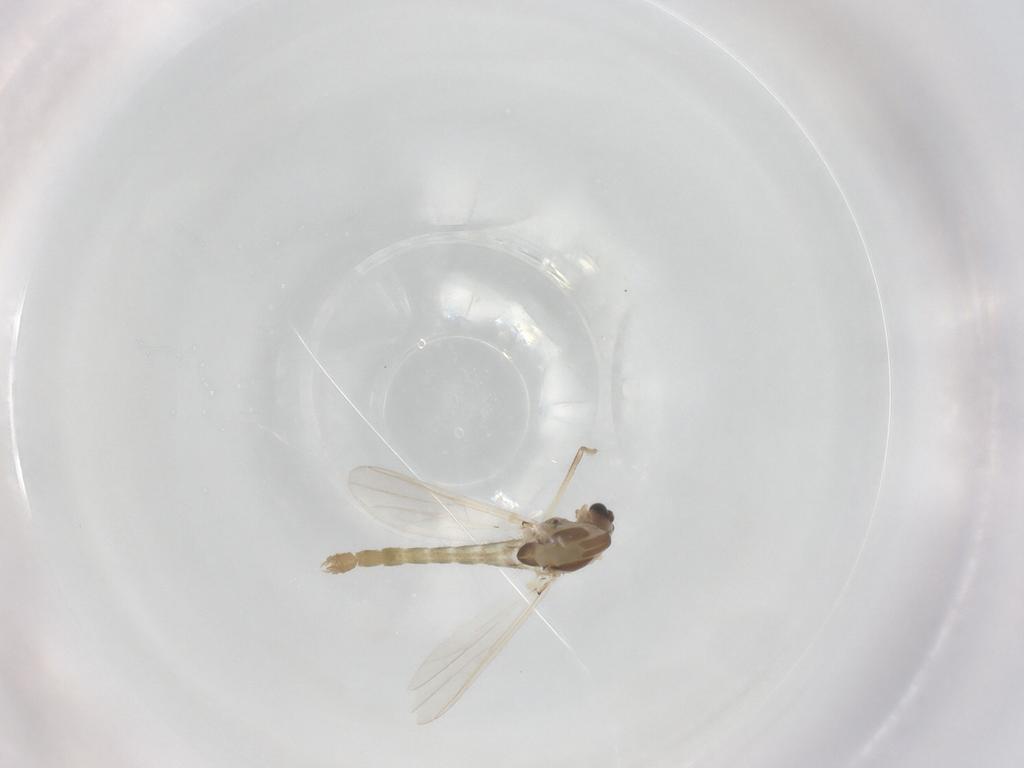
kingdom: Animalia
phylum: Arthropoda
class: Insecta
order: Diptera
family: Chironomidae
